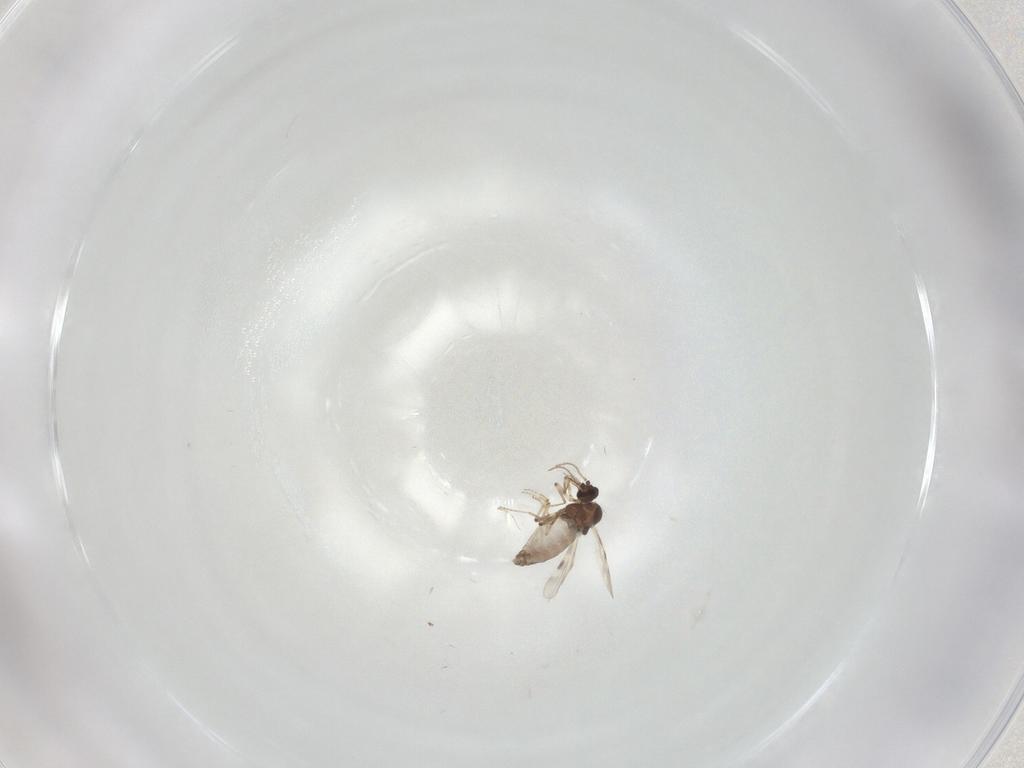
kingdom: Animalia
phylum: Arthropoda
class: Insecta
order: Diptera
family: Ceratopogonidae
